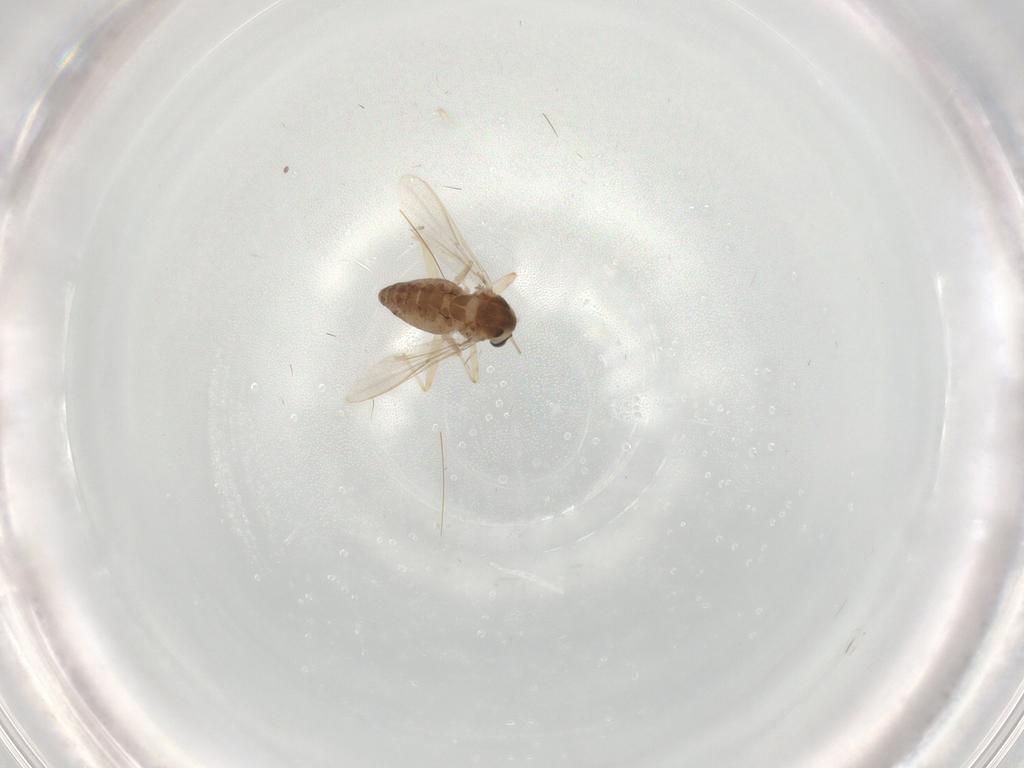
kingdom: Animalia
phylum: Arthropoda
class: Insecta
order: Diptera
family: Chironomidae
